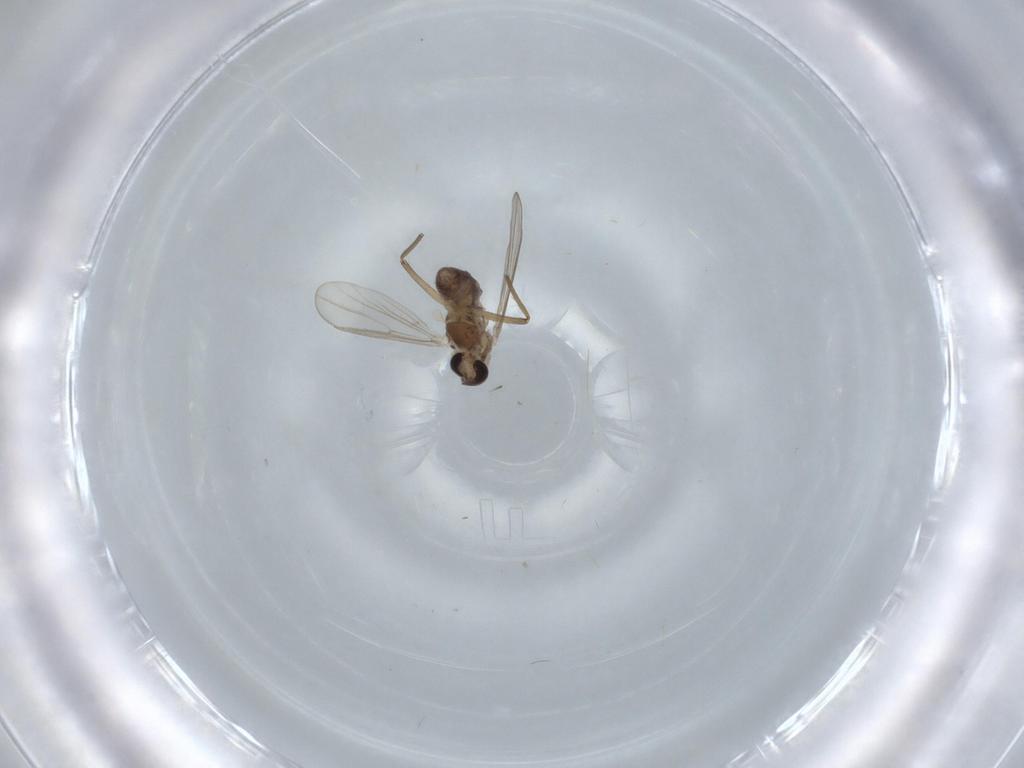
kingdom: Animalia
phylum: Arthropoda
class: Insecta
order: Diptera
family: Chironomidae
